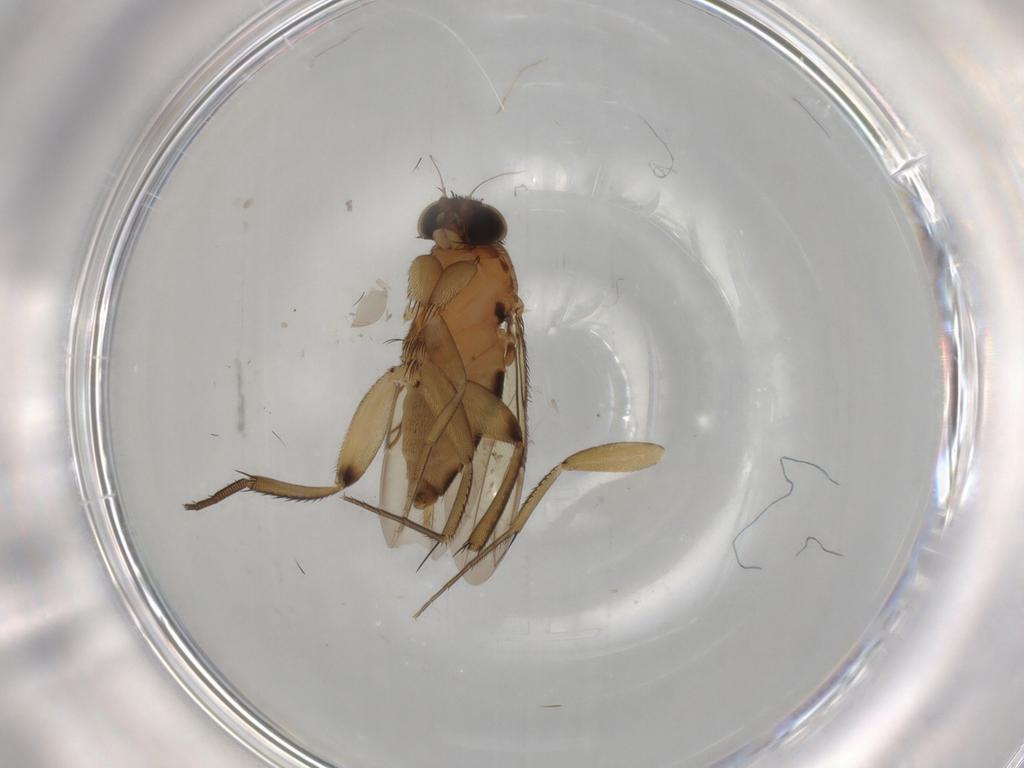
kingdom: Animalia
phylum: Arthropoda
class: Insecta
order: Diptera
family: Phoridae
